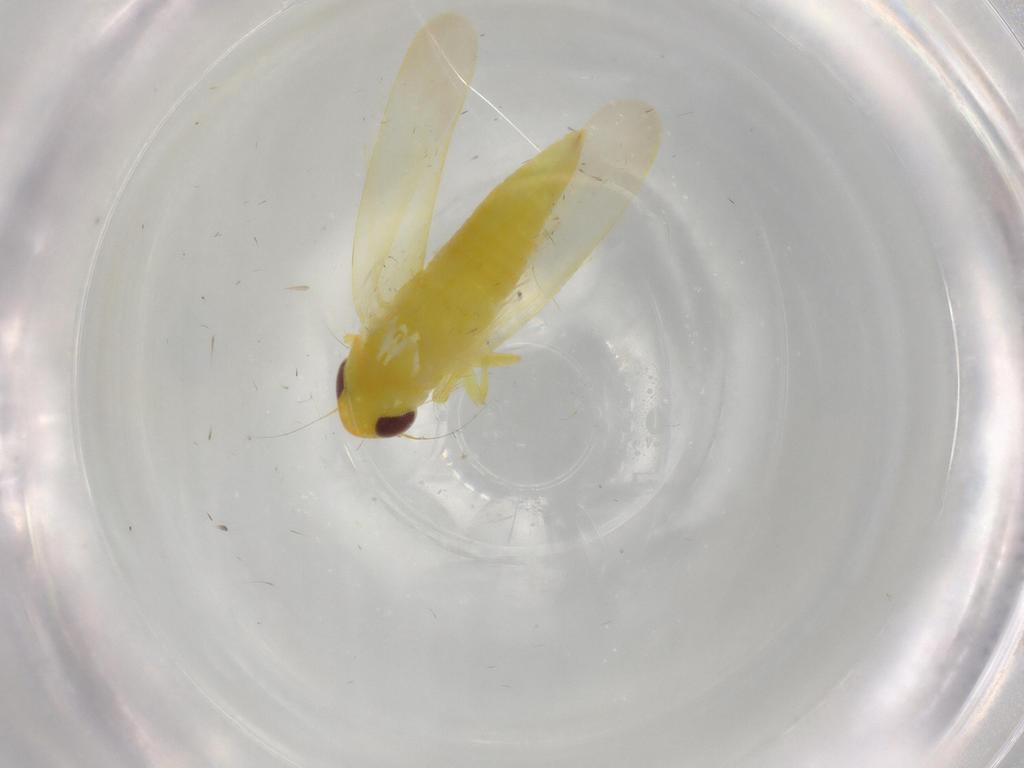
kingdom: Animalia
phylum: Arthropoda
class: Insecta
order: Hemiptera
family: Cicadellidae
